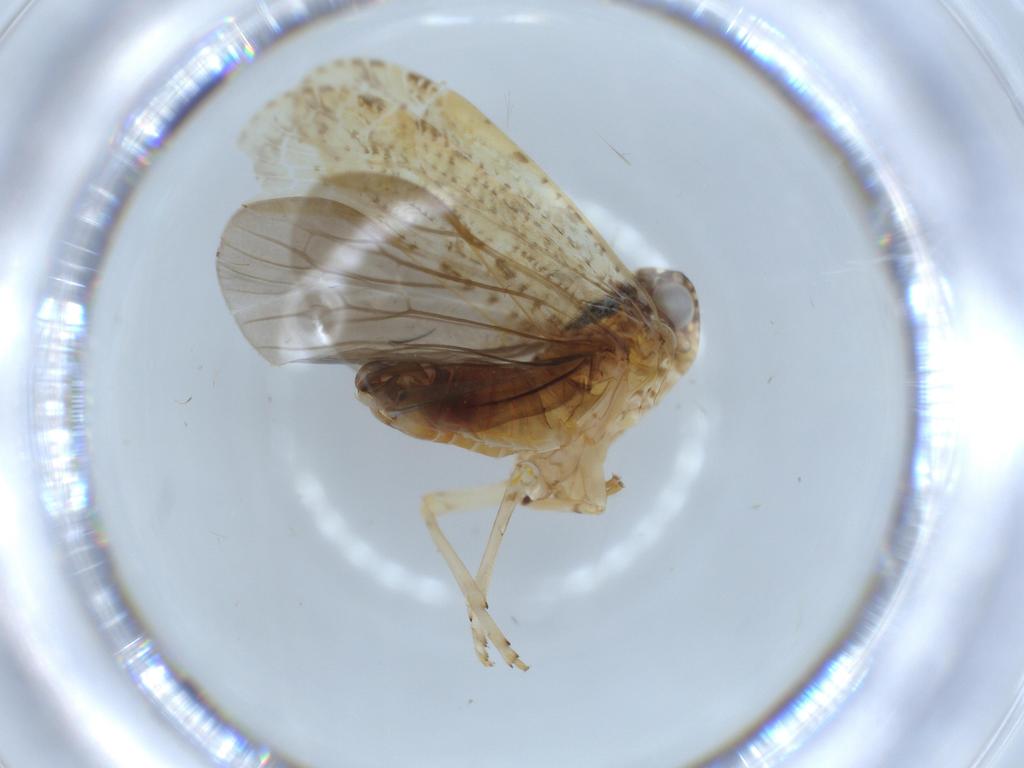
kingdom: Animalia
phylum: Arthropoda
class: Insecta
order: Hemiptera
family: Achilidae
